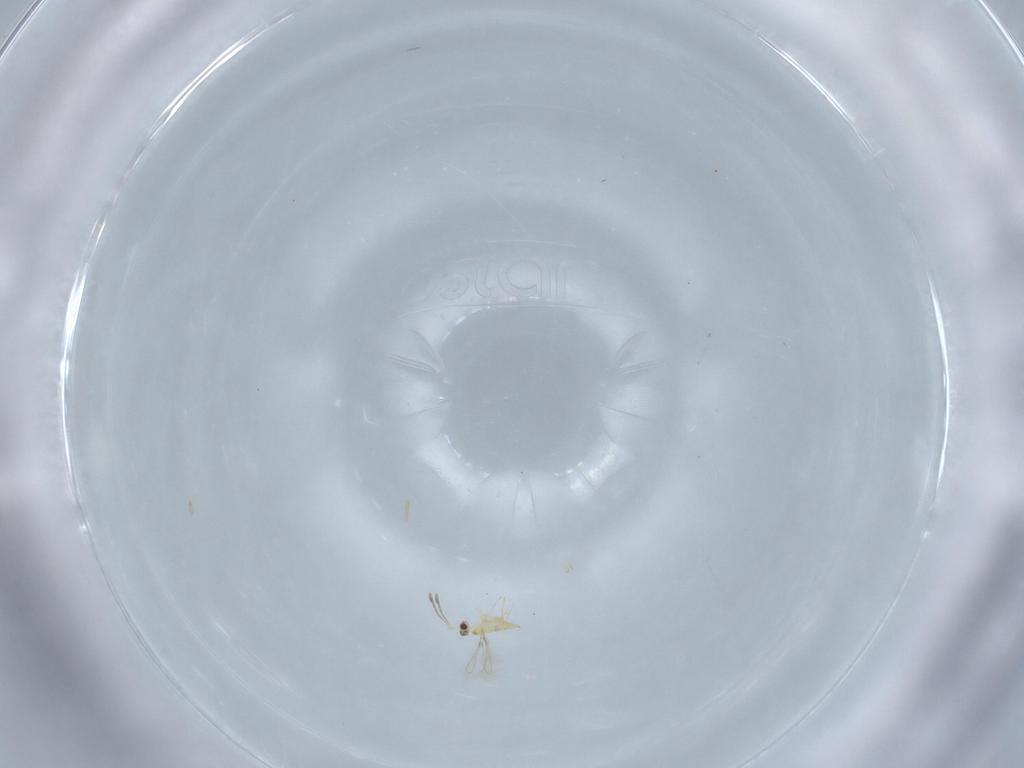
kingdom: Animalia
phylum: Arthropoda
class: Insecta
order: Hymenoptera
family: Mymaridae
